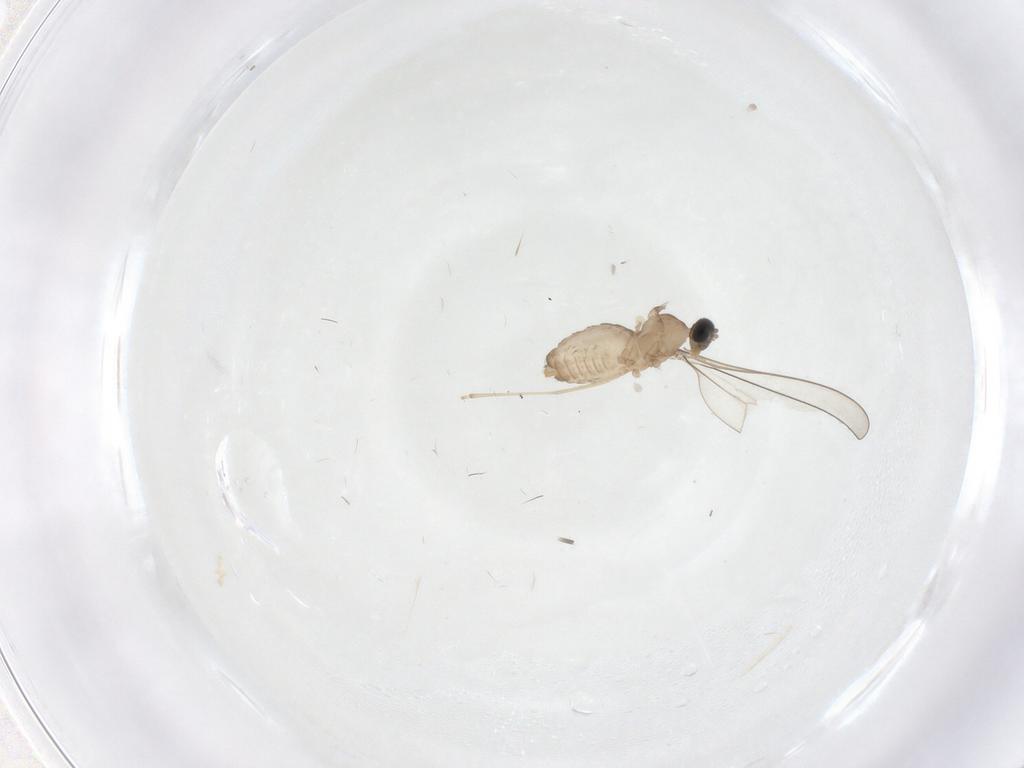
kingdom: Animalia
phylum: Arthropoda
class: Insecta
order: Diptera
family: Cecidomyiidae
